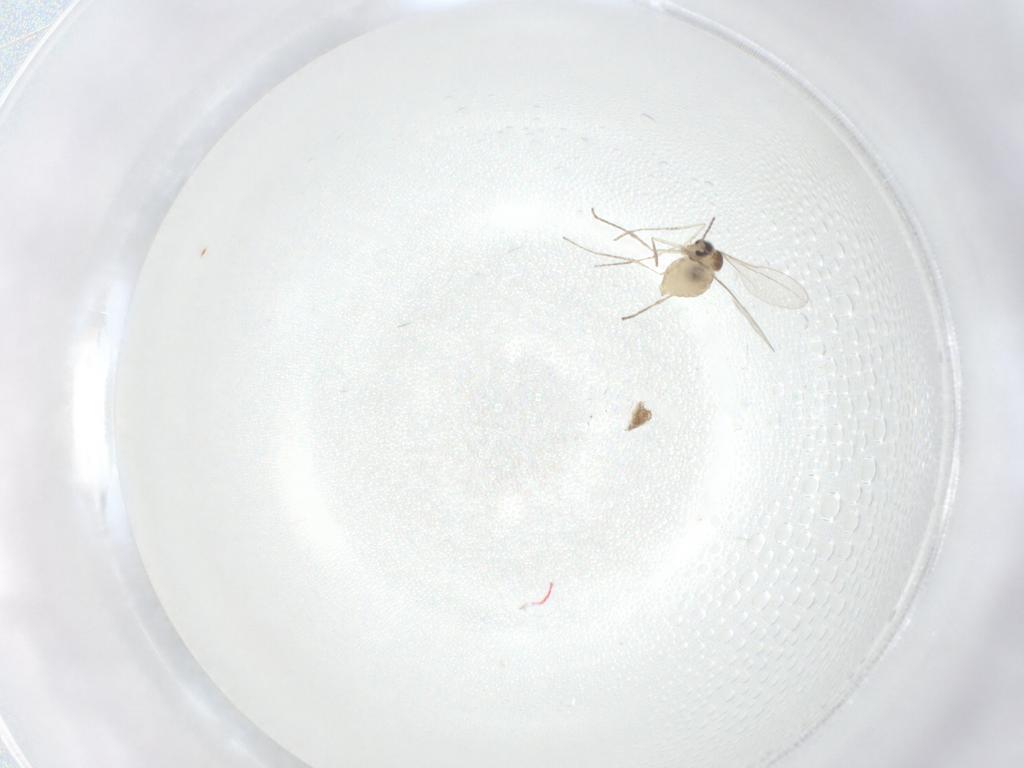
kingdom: Animalia
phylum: Arthropoda
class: Insecta
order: Diptera
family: Cecidomyiidae
